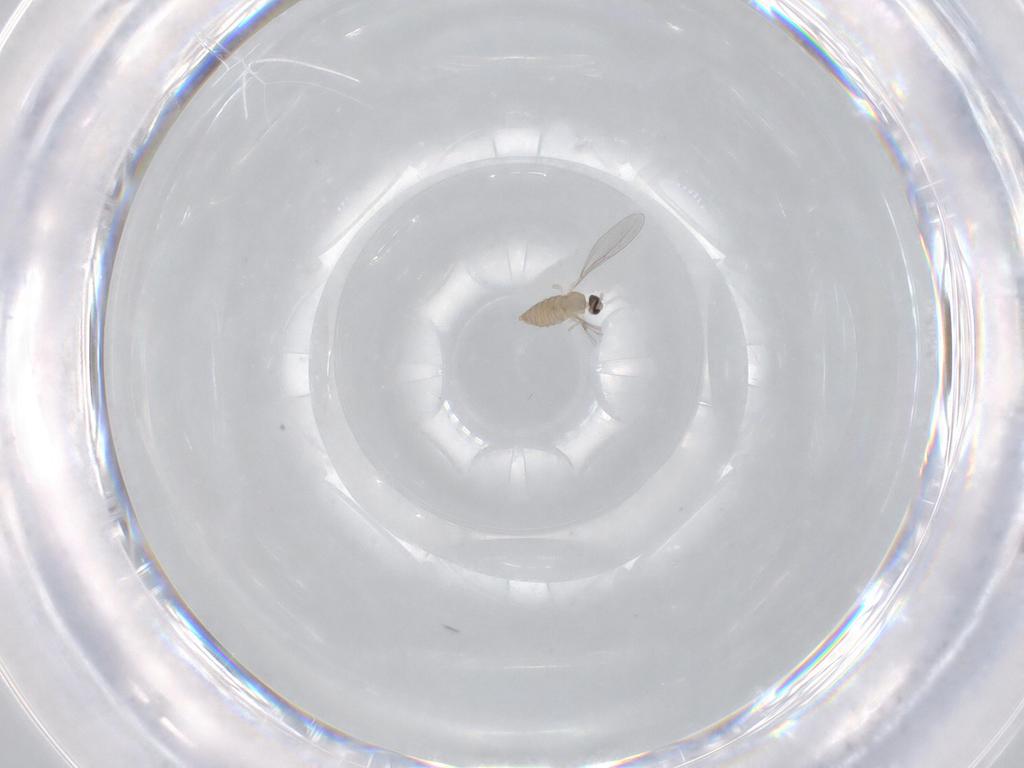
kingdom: Animalia
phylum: Arthropoda
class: Insecta
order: Diptera
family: Cecidomyiidae
